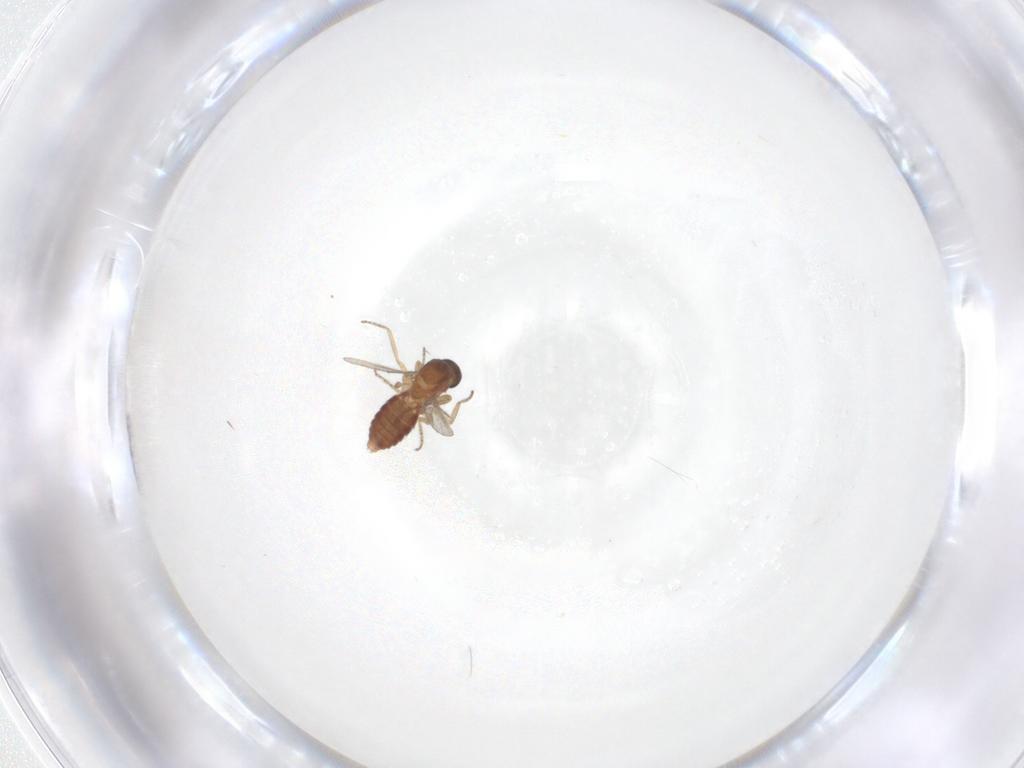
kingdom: Animalia
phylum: Arthropoda
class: Insecta
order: Diptera
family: Ceratopogonidae
